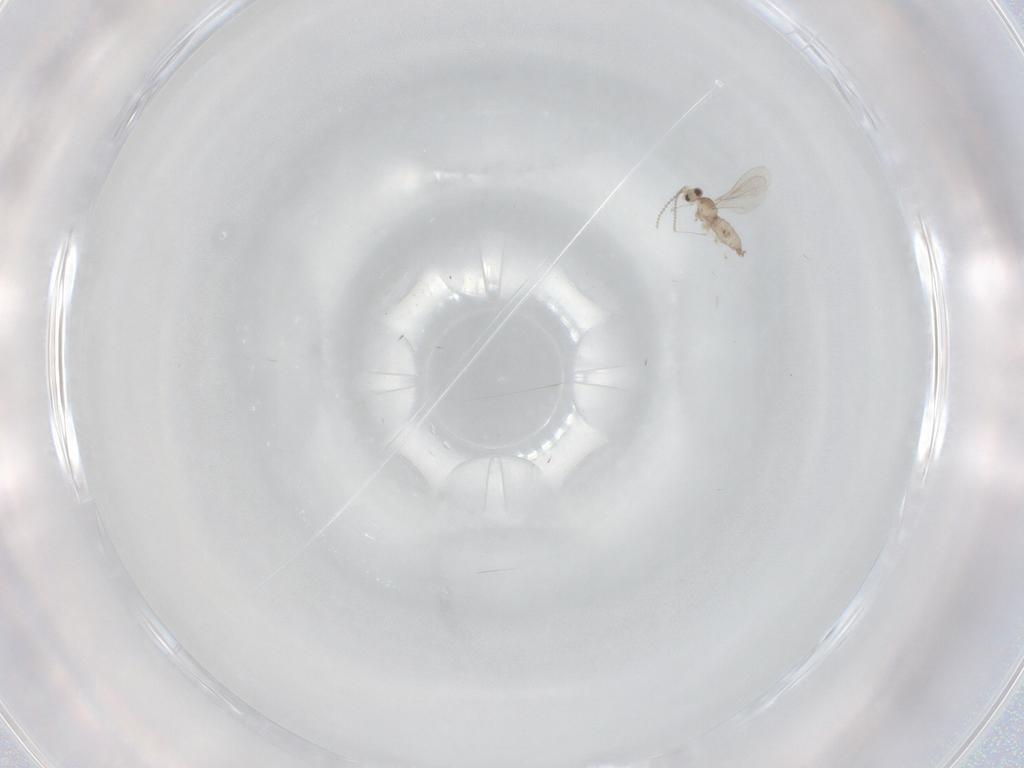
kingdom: Animalia
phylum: Arthropoda
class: Insecta
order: Diptera
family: Cecidomyiidae
